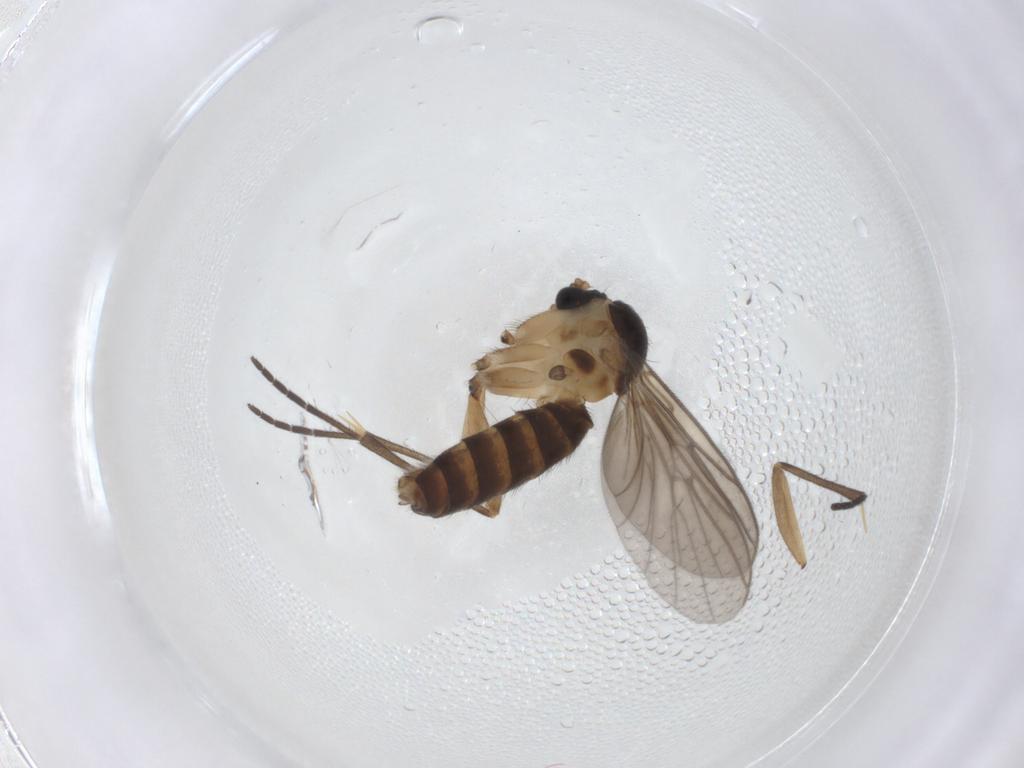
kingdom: Animalia
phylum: Arthropoda
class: Insecta
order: Diptera
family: Mycetophilidae
